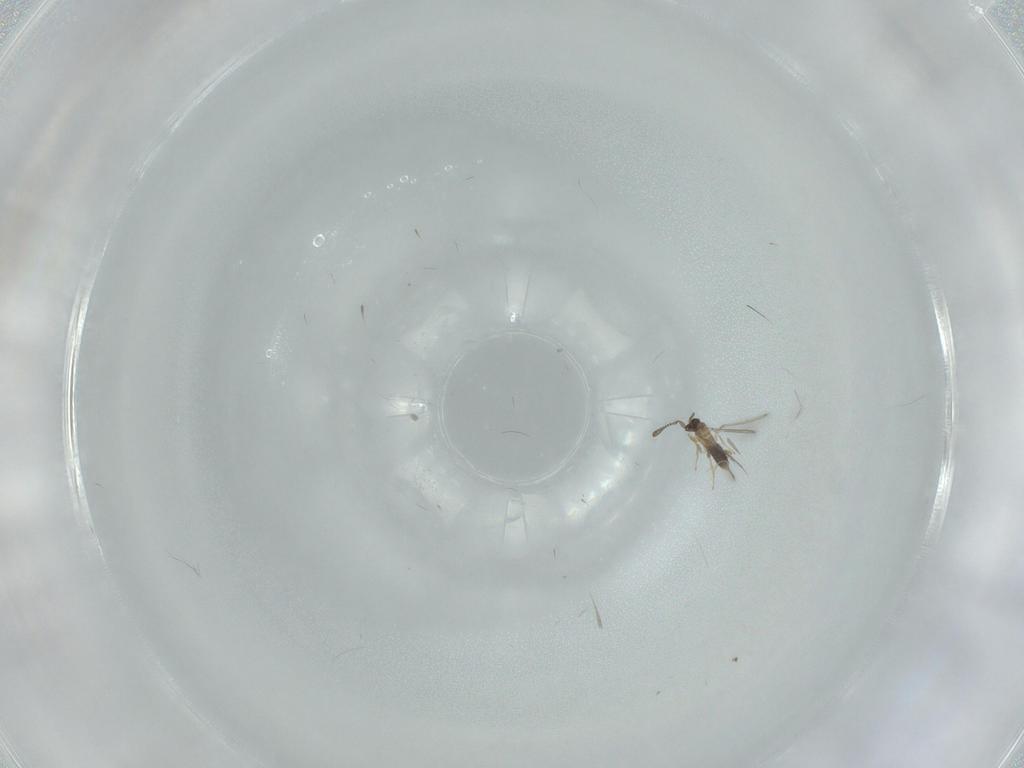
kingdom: Animalia
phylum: Arthropoda
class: Insecta
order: Hymenoptera
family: Mymaridae
